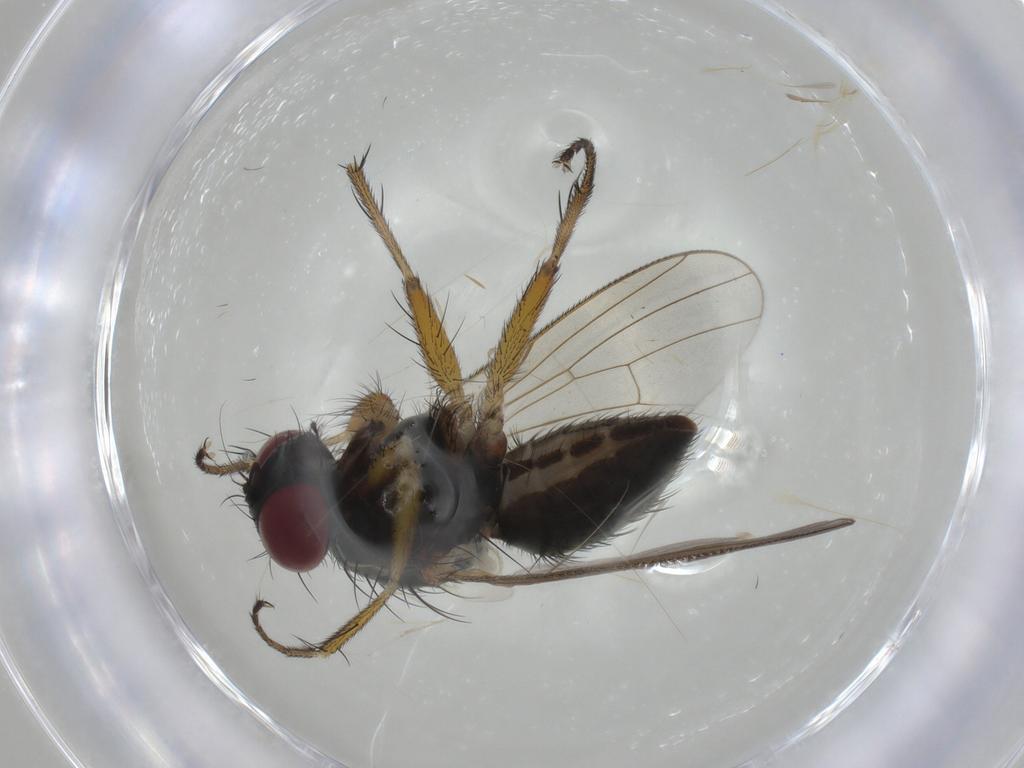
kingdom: Animalia
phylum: Arthropoda
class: Insecta
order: Diptera
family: Muscidae
